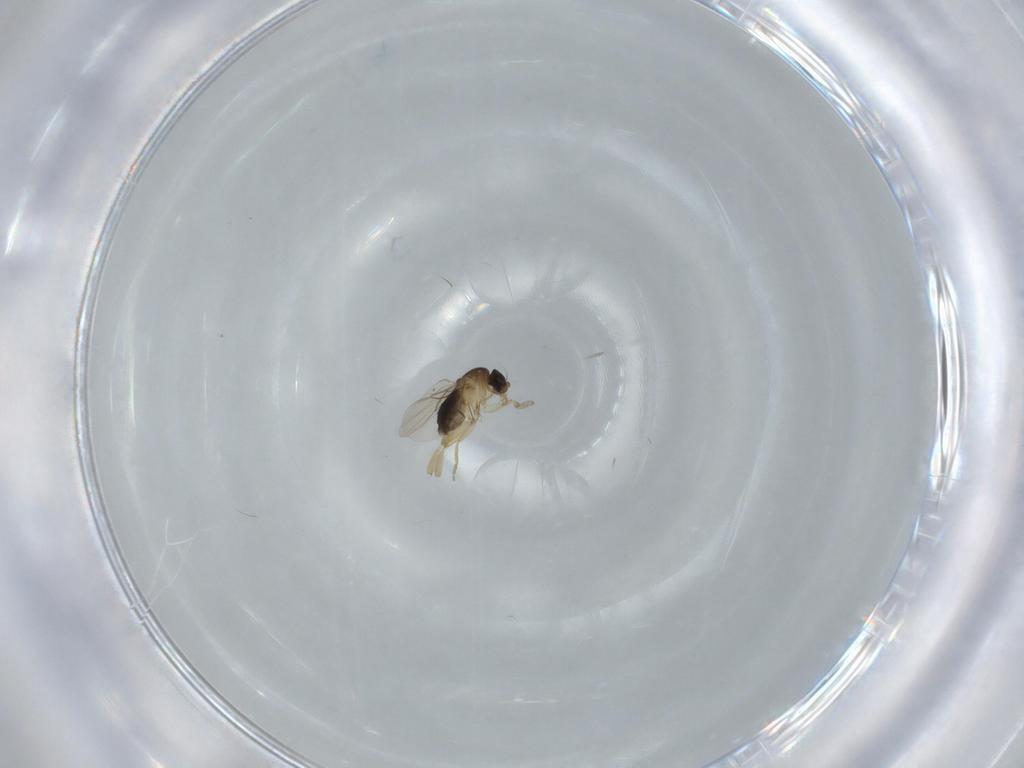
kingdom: Animalia
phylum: Arthropoda
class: Insecta
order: Diptera
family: Phoridae
